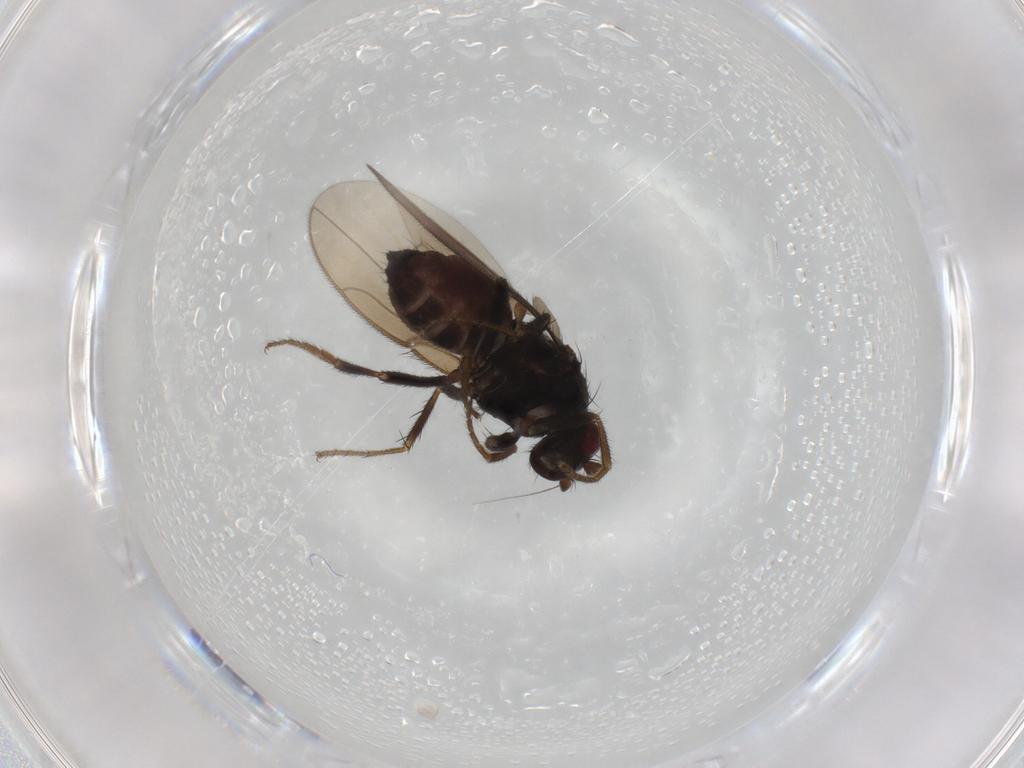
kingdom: Animalia
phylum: Arthropoda
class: Insecta
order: Diptera
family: Sphaeroceridae
